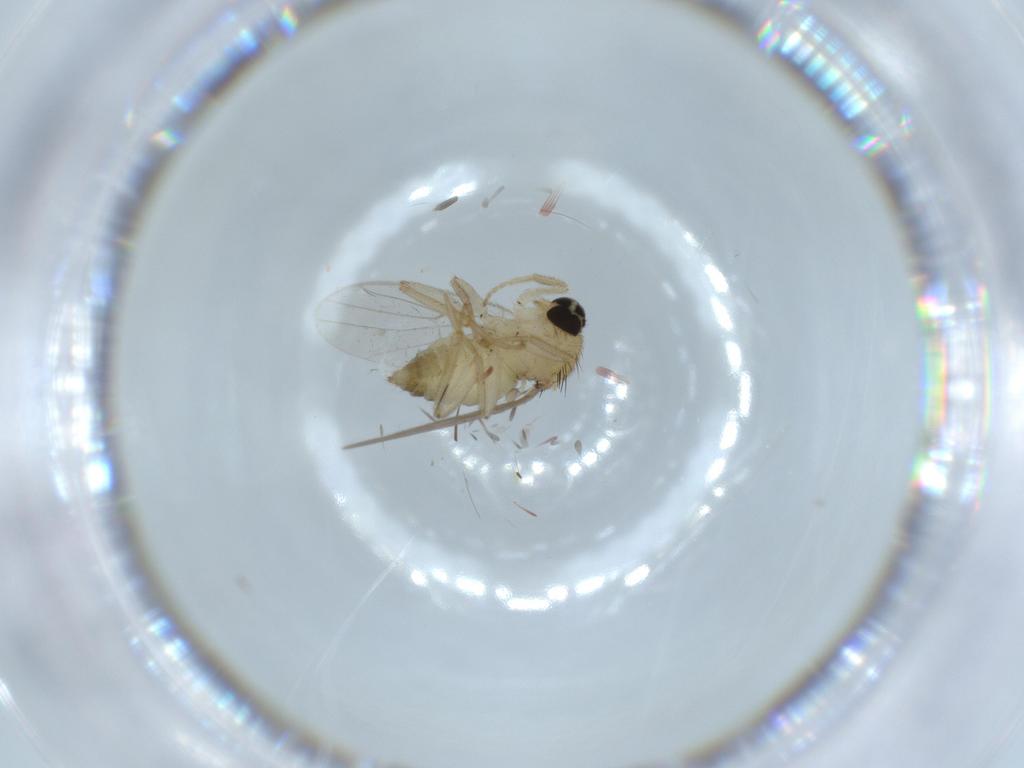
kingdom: Animalia
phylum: Arthropoda
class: Insecta
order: Diptera
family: Hybotidae
